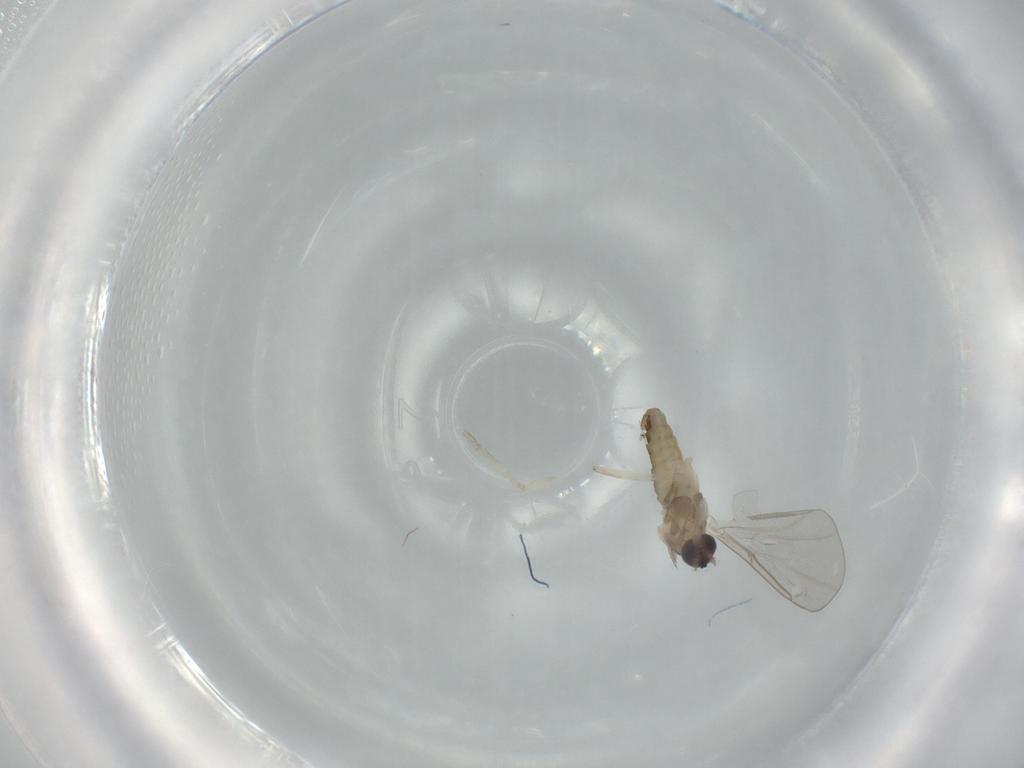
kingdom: Animalia
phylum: Arthropoda
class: Insecta
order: Diptera
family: Cecidomyiidae
